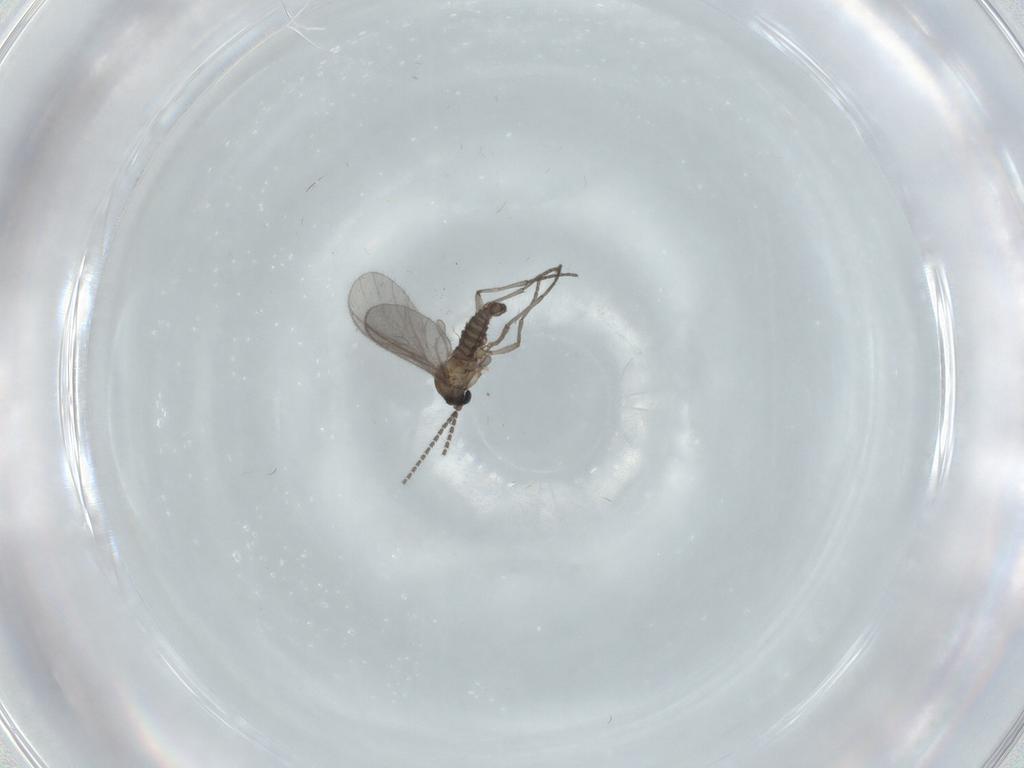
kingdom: Animalia
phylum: Arthropoda
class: Insecta
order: Diptera
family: Sciaridae
